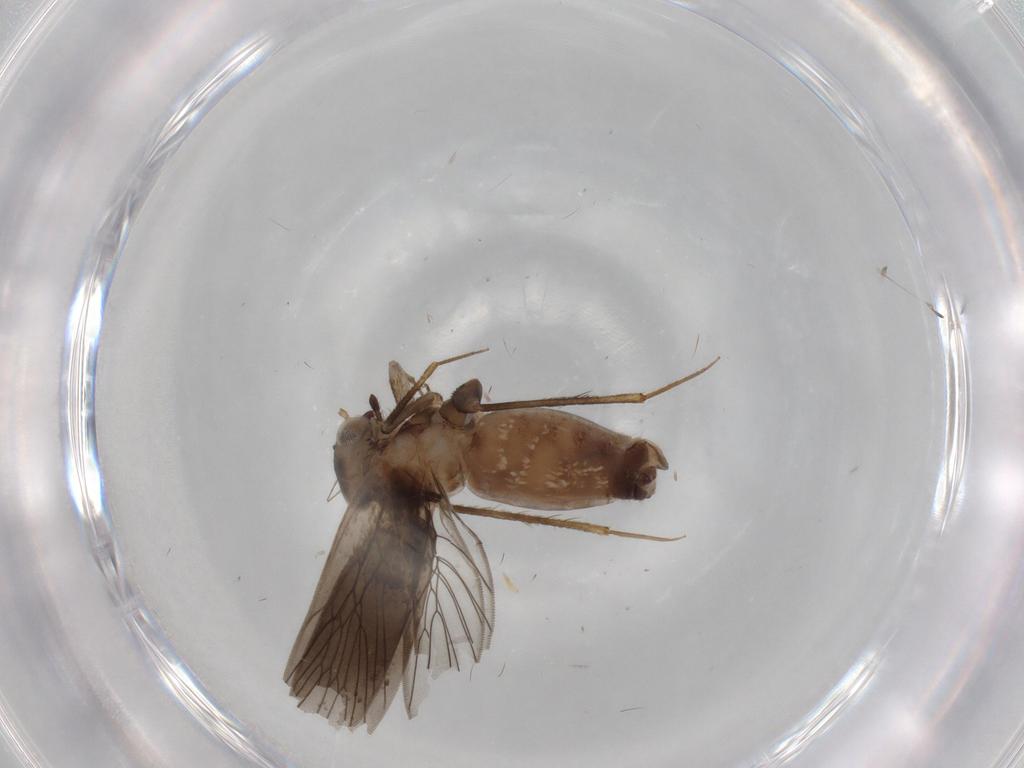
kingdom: Animalia
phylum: Arthropoda
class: Insecta
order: Psocodea
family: Lepidopsocidae
